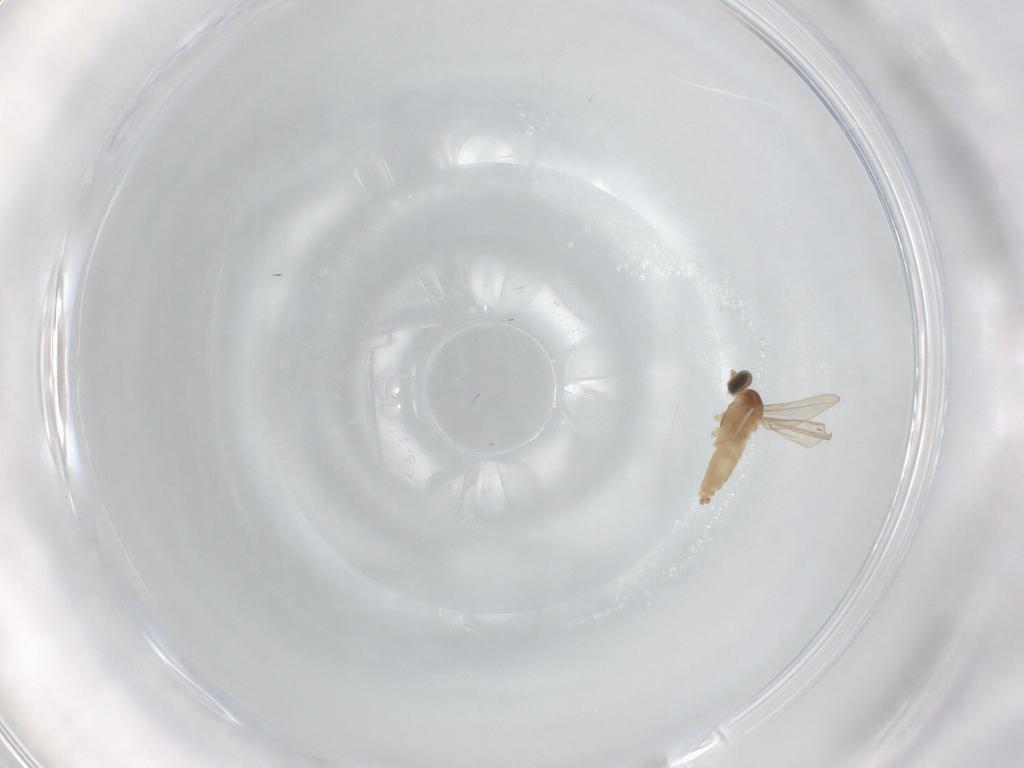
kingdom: Animalia
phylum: Arthropoda
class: Insecta
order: Diptera
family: Cecidomyiidae
